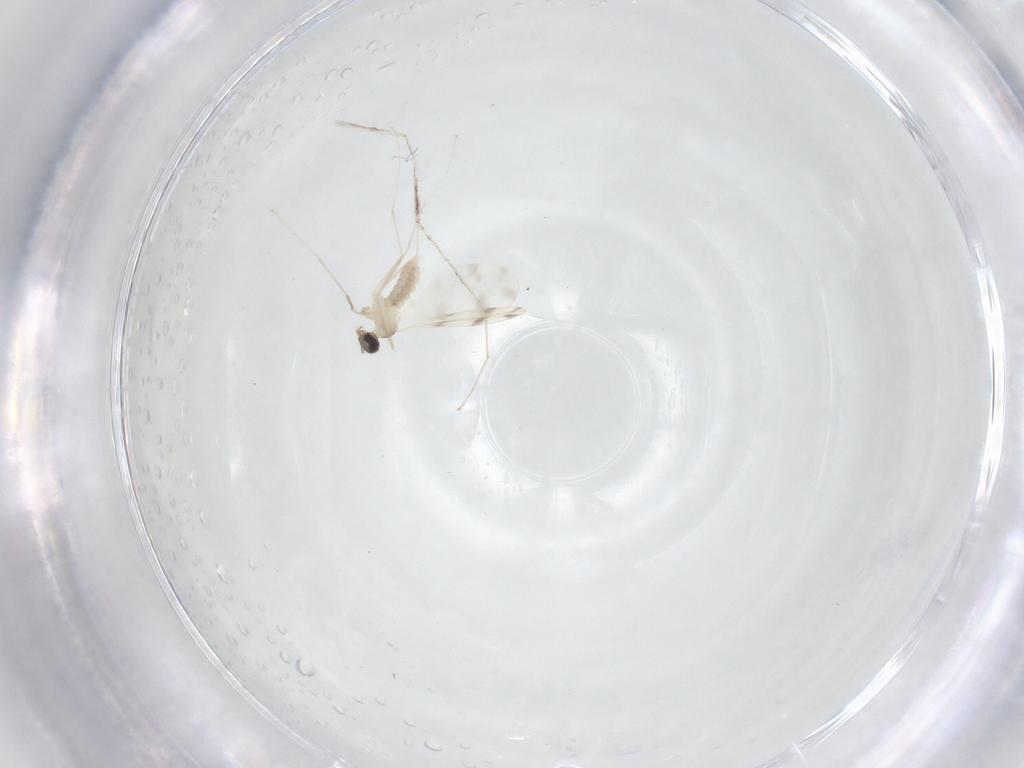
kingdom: Animalia
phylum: Arthropoda
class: Insecta
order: Diptera
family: Cecidomyiidae
